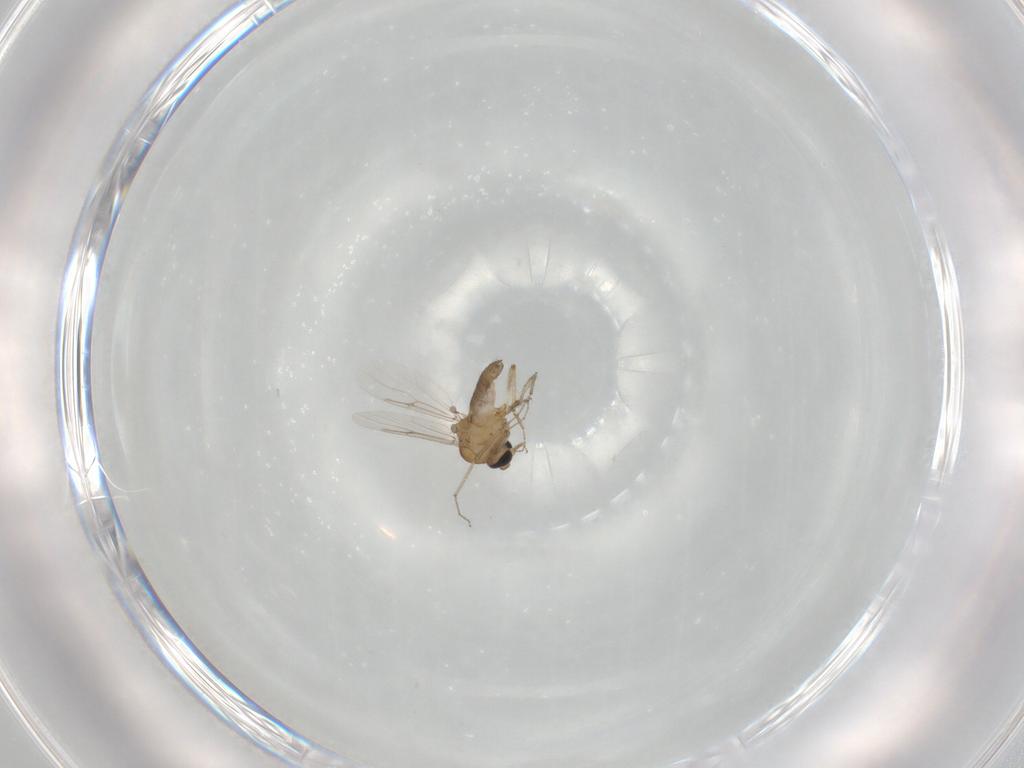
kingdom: Animalia
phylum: Arthropoda
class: Insecta
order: Diptera
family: Ceratopogonidae
